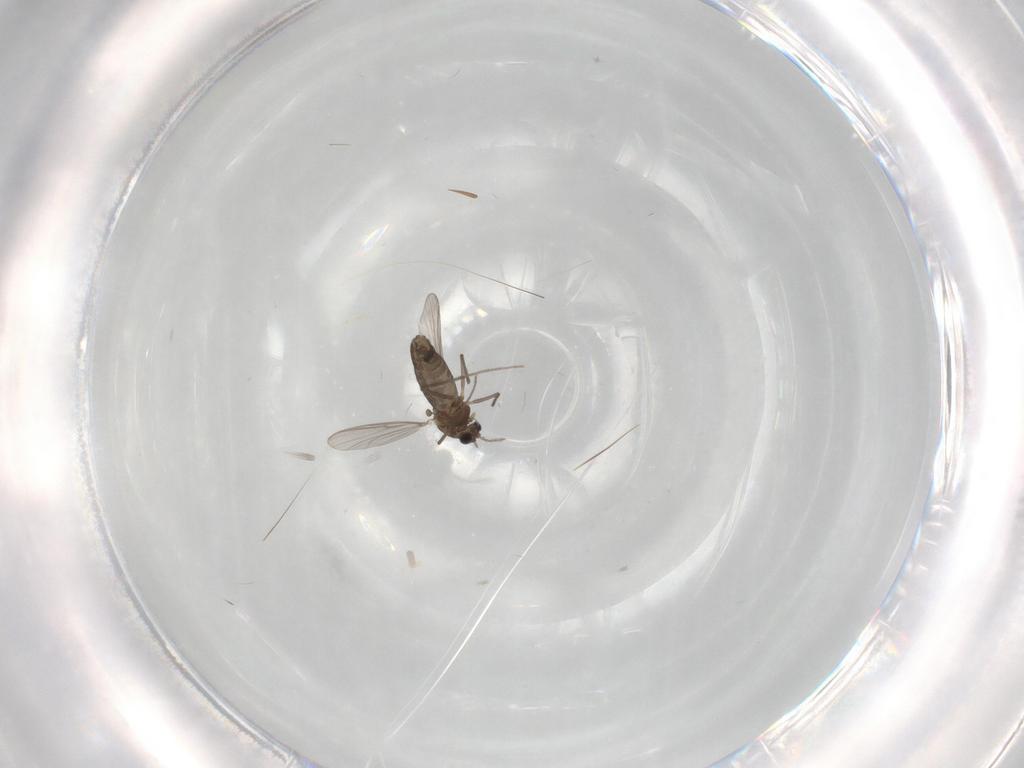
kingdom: Animalia
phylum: Arthropoda
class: Insecta
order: Diptera
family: Chironomidae
